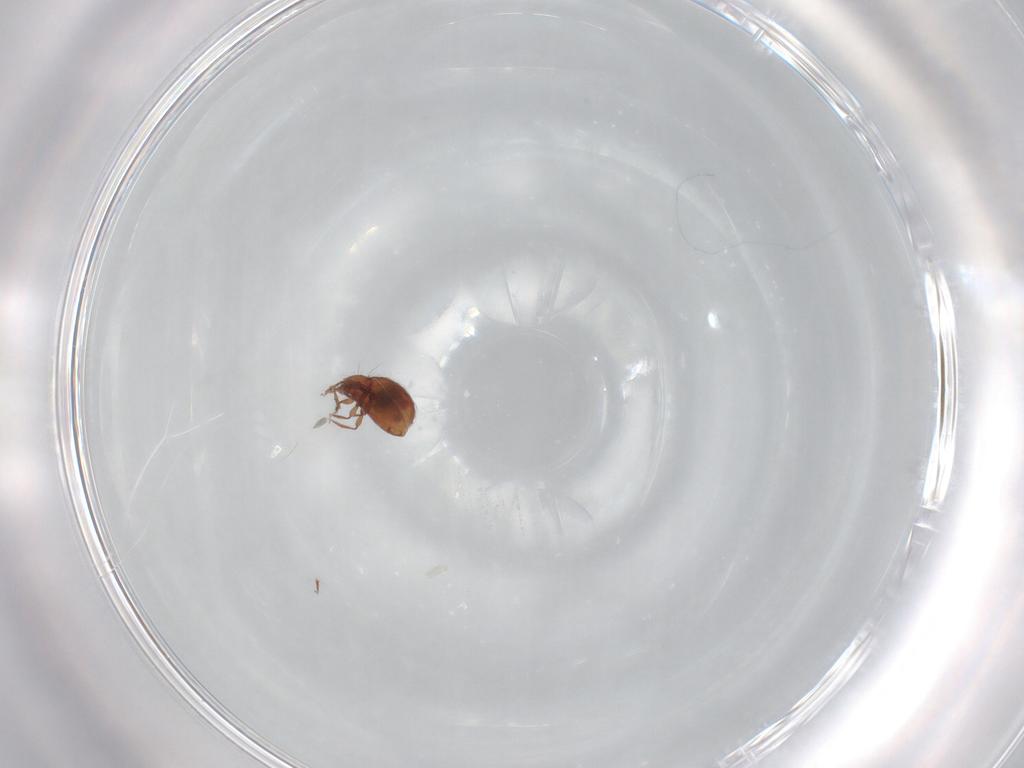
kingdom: Animalia
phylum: Arthropoda
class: Arachnida
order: Sarcoptiformes
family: Oribatulidae
